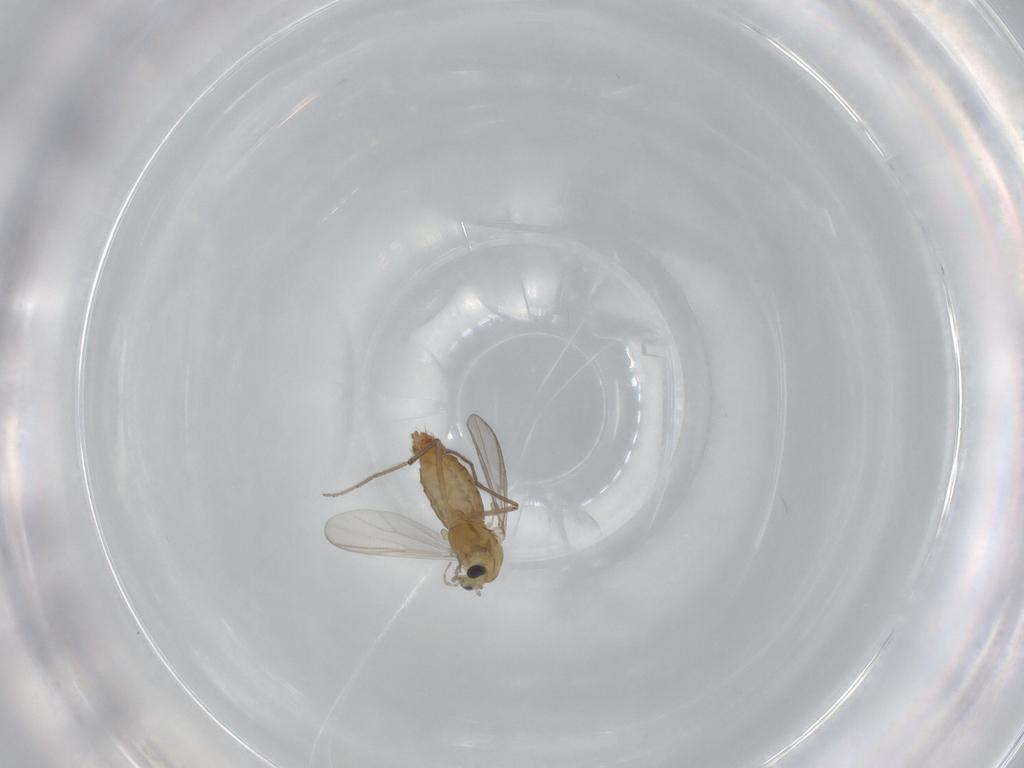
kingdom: Animalia
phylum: Arthropoda
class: Insecta
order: Diptera
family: Chironomidae
